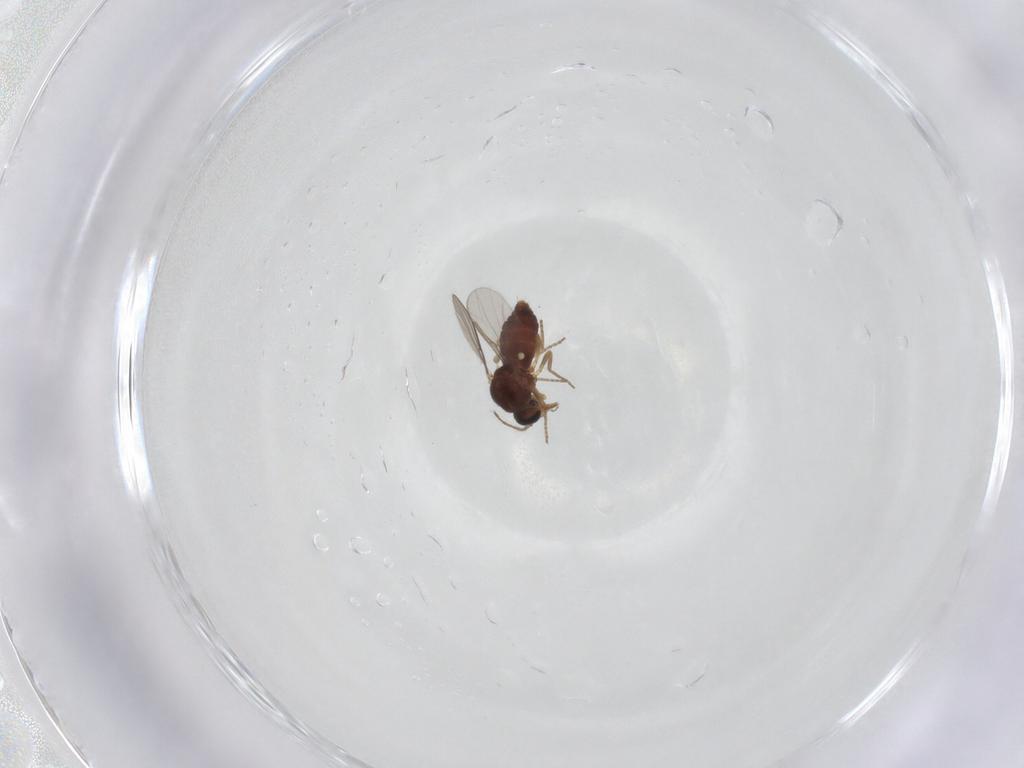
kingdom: Animalia
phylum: Arthropoda
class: Insecta
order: Diptera
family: Ceratopogonidae
